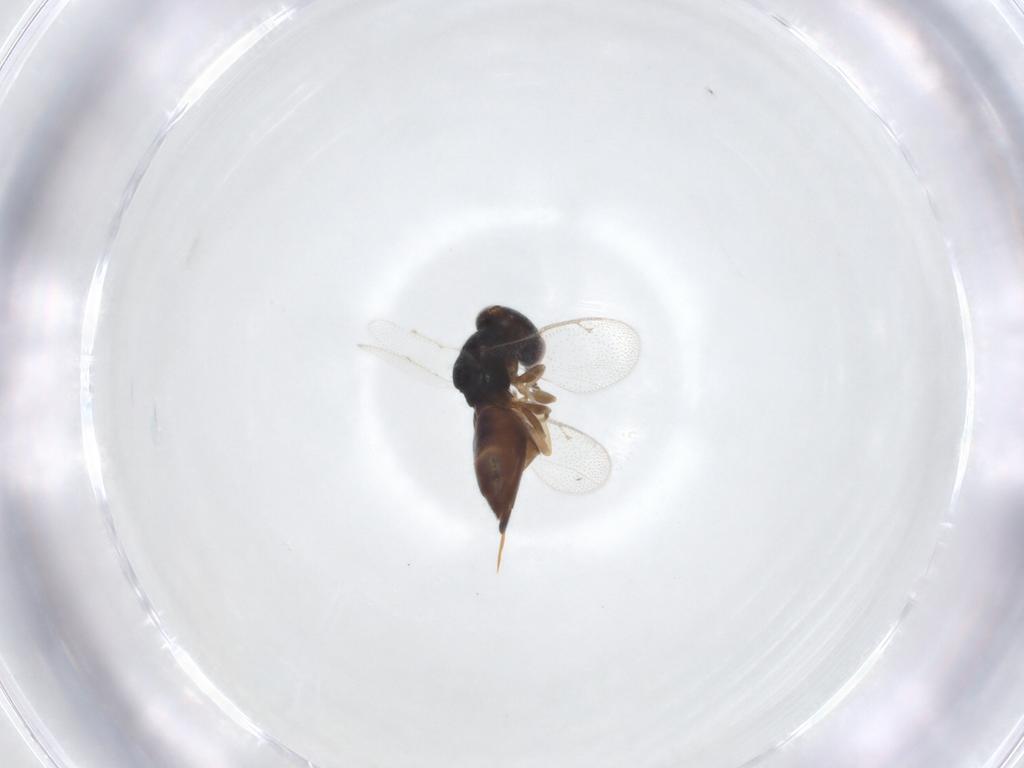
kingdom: Animalia
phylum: Arthropoda
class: Insecta
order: Hymenoptera
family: Pteromalidae
